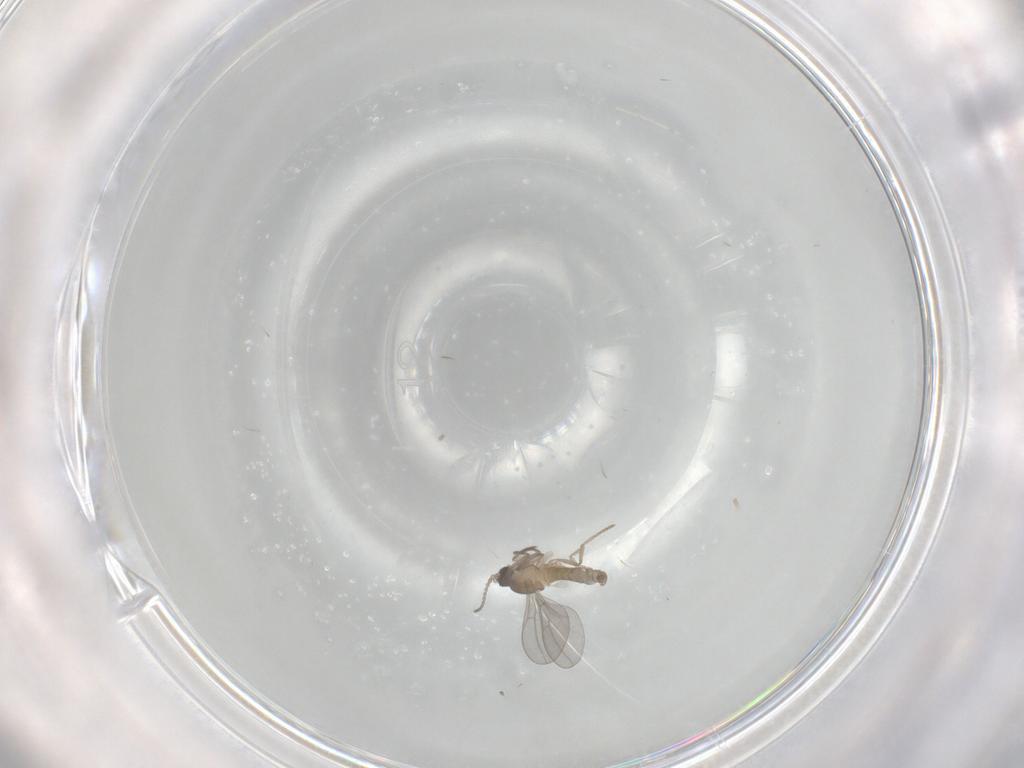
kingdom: Animalia
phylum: Arthropoda
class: Insecta
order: Diptera
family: Cecidomyiidae
